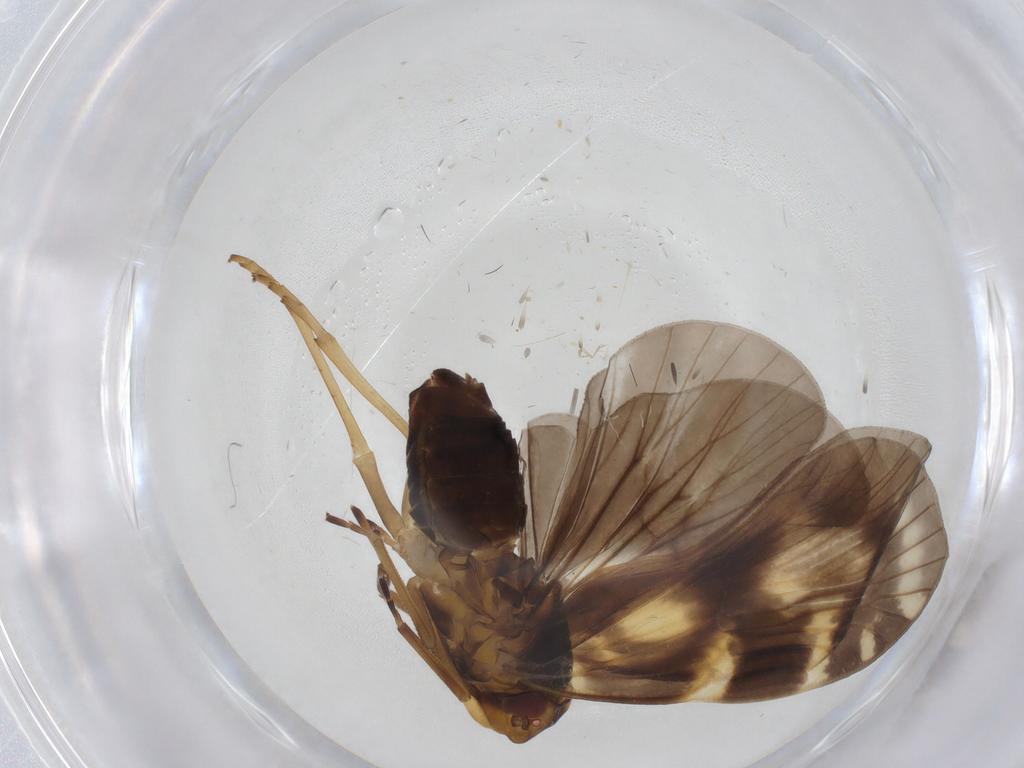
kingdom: Animalia
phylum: Arthropoda
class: Insecta
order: Hemiptera
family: Cixiidae
